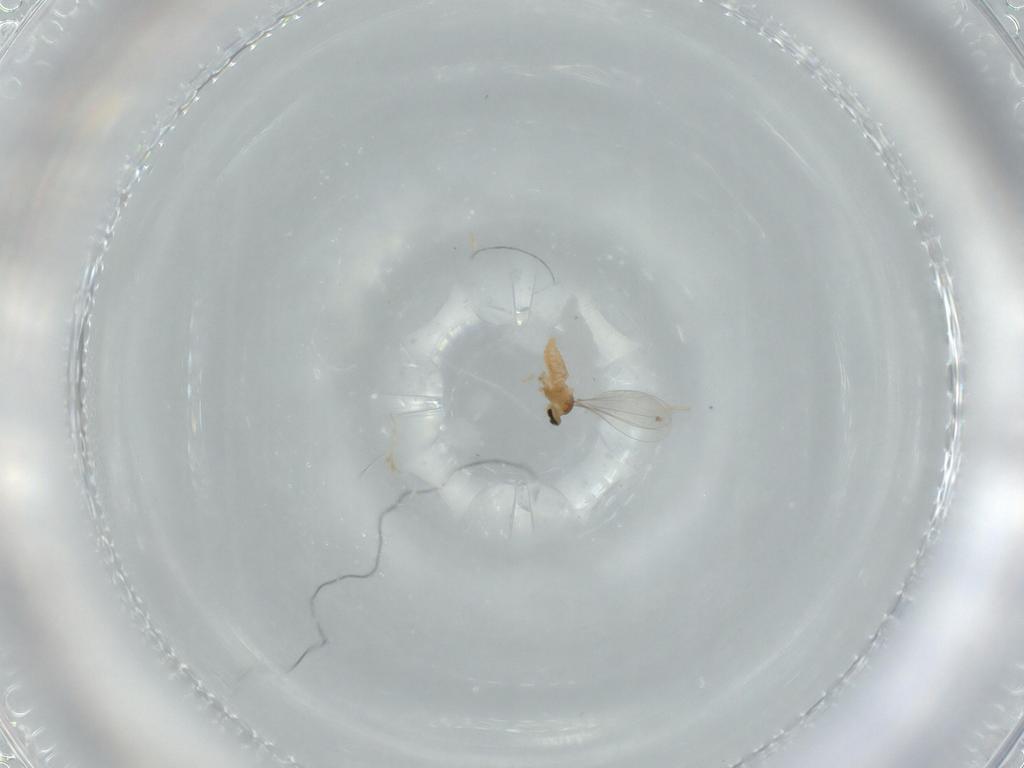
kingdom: Animalia
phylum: Arthropoda
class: Insecta
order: Diptera
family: Cecidomyiidae
